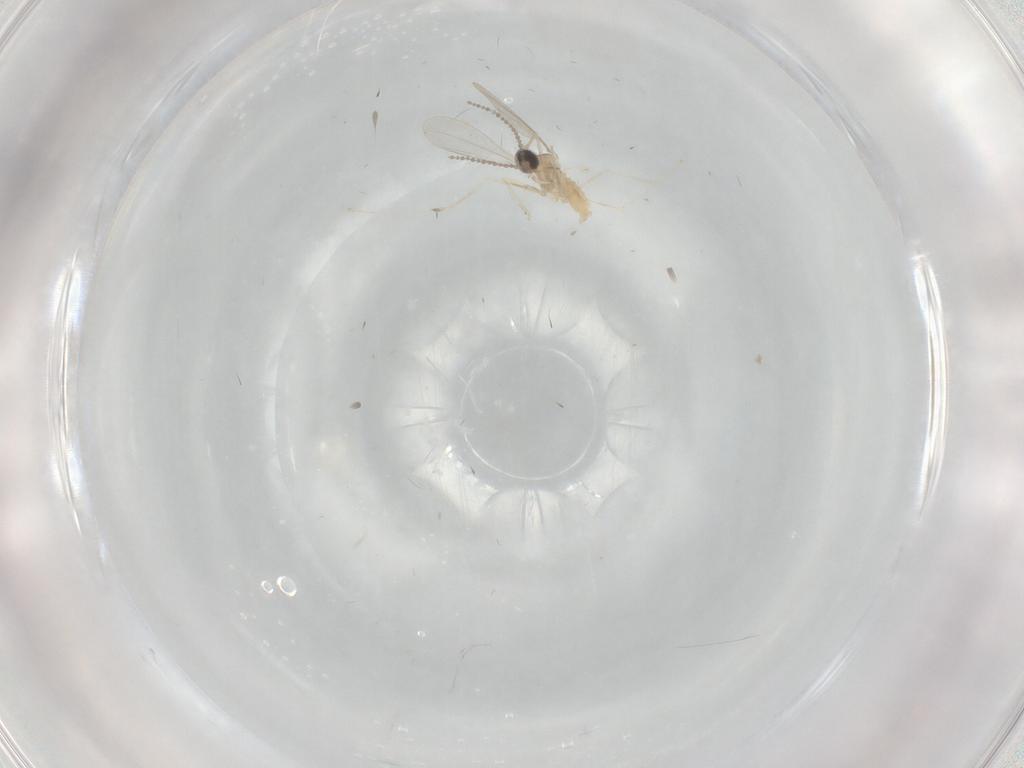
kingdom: Animalia
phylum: Arthropoda
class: Insecta
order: Diptera
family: Cecidomyiidae
